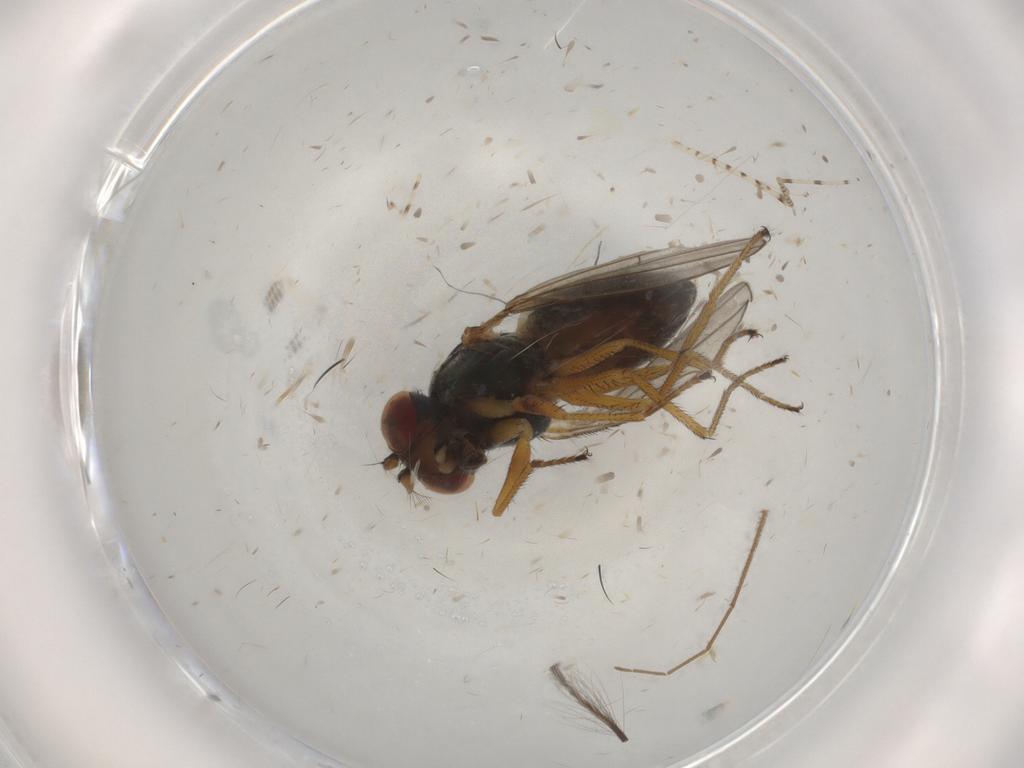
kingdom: Animalia
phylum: Arthropoda
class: Insecta
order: Diptera
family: Ephydridae
